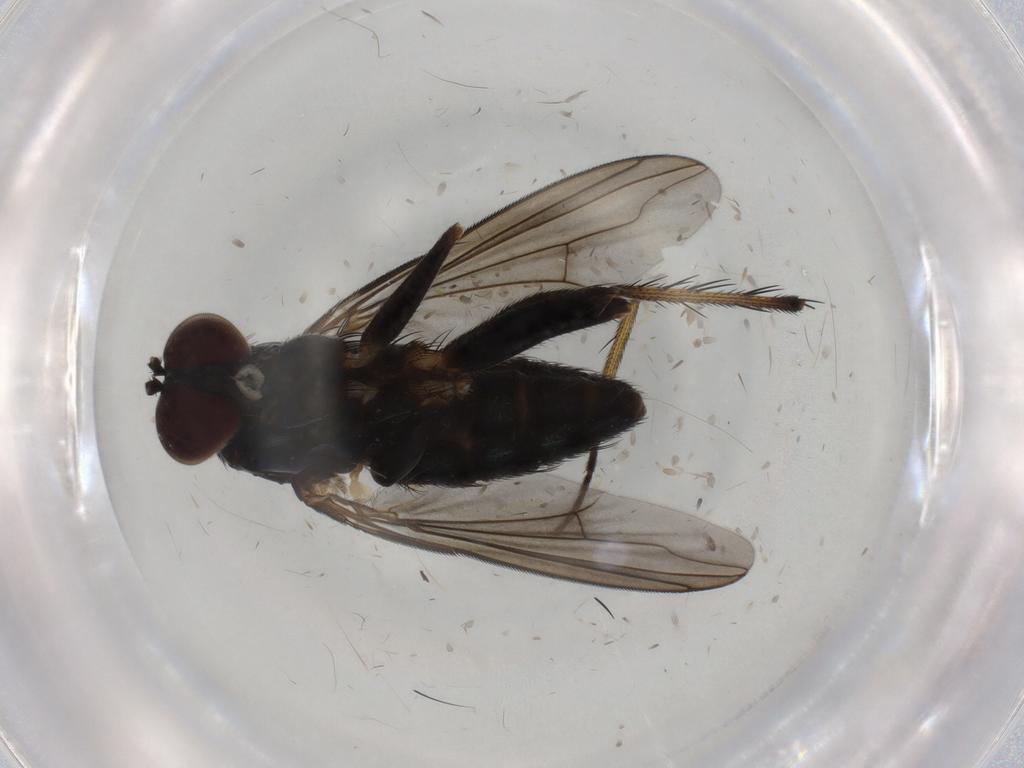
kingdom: Animalia
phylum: Arthropoda
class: Insecta
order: Diptera
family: Dolichopodidae
